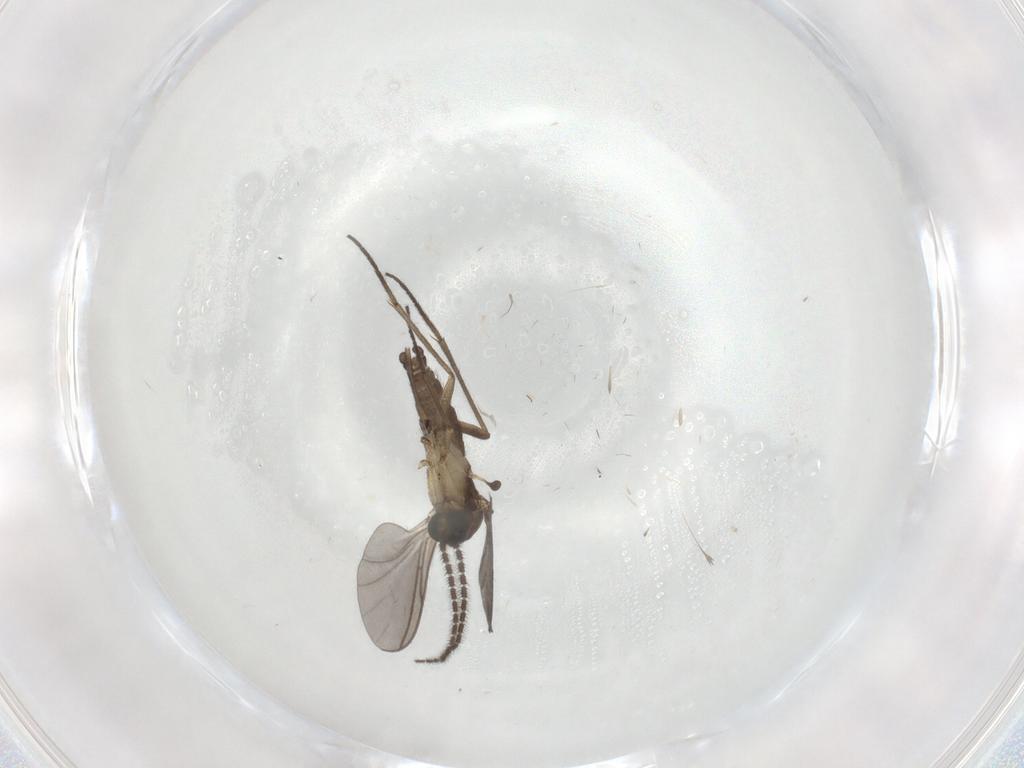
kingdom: Animalia
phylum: Arthropoda
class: Insecta
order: Diptera
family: Sciaridae
